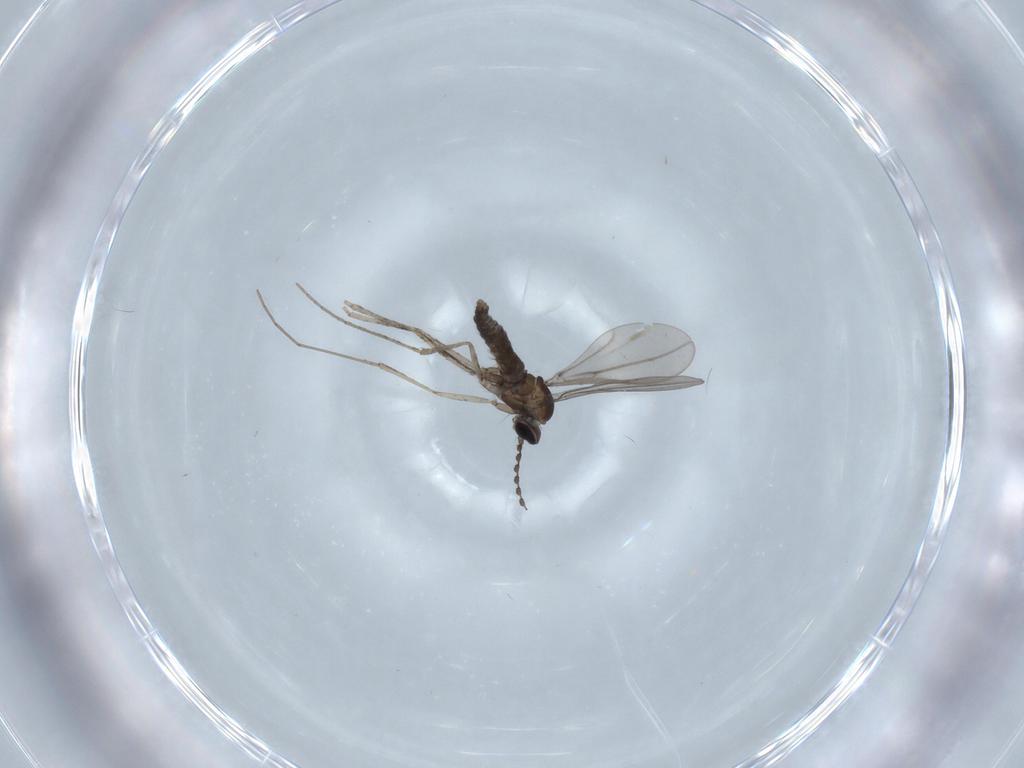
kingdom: Animalia
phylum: Arthropoda
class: Insecta
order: Diptera
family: Cecidomyiidae
